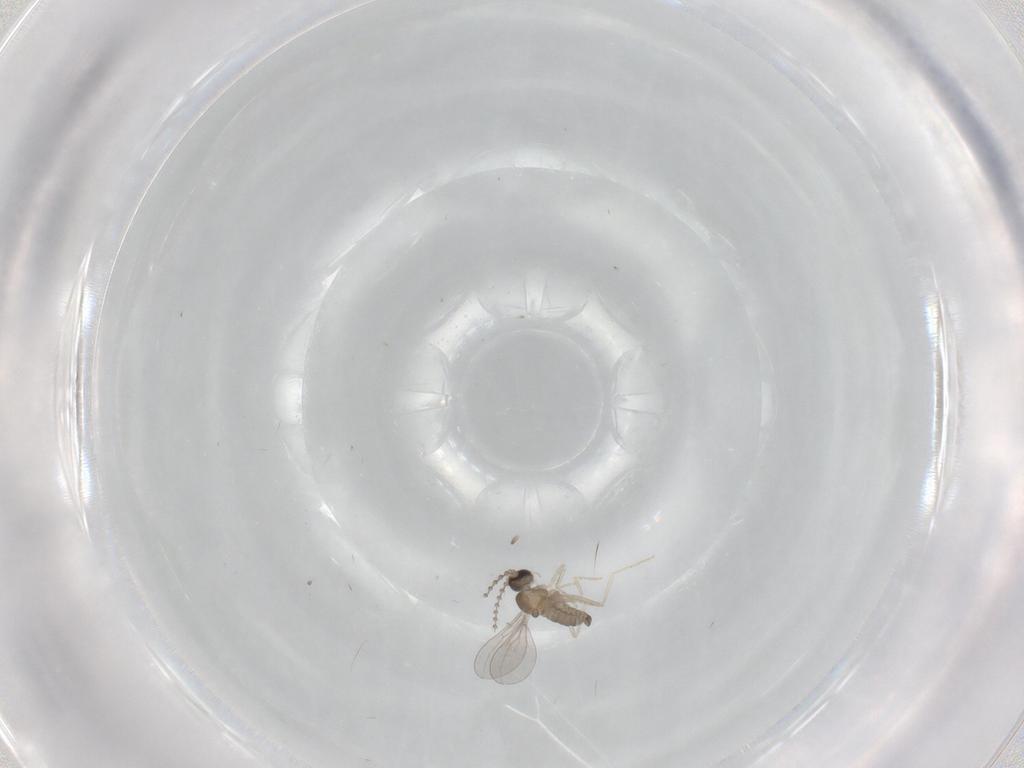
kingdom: Animalia
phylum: Arthropoda
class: Insecta
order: Diptera
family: Cecidomyiidae
